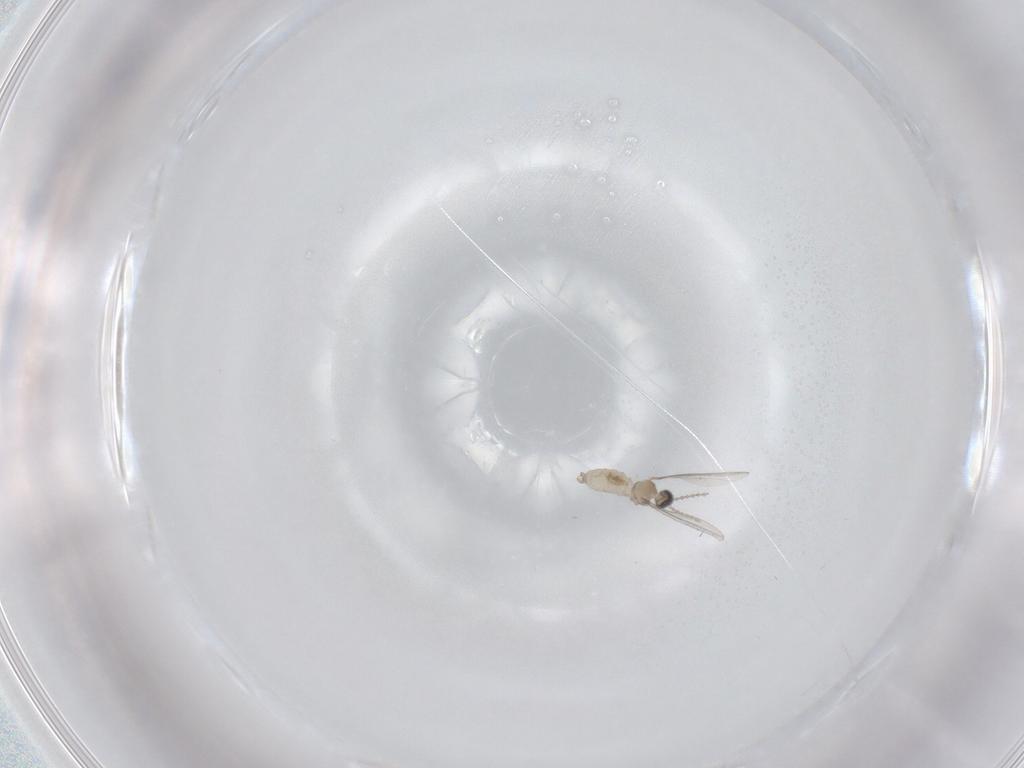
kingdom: Animalia
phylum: Arthropoda
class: Insecta
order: Diptera
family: Cecidomyiidae
